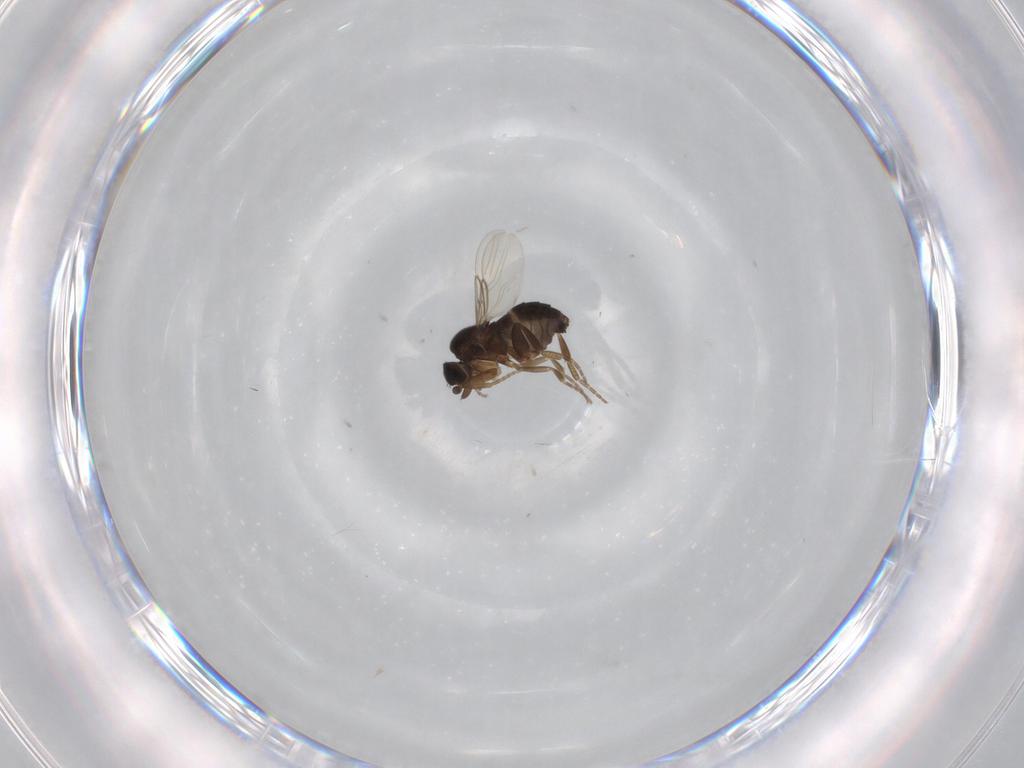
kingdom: Animalia
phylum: Arthropoda
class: Insecta
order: Diptera
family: Phoridae
